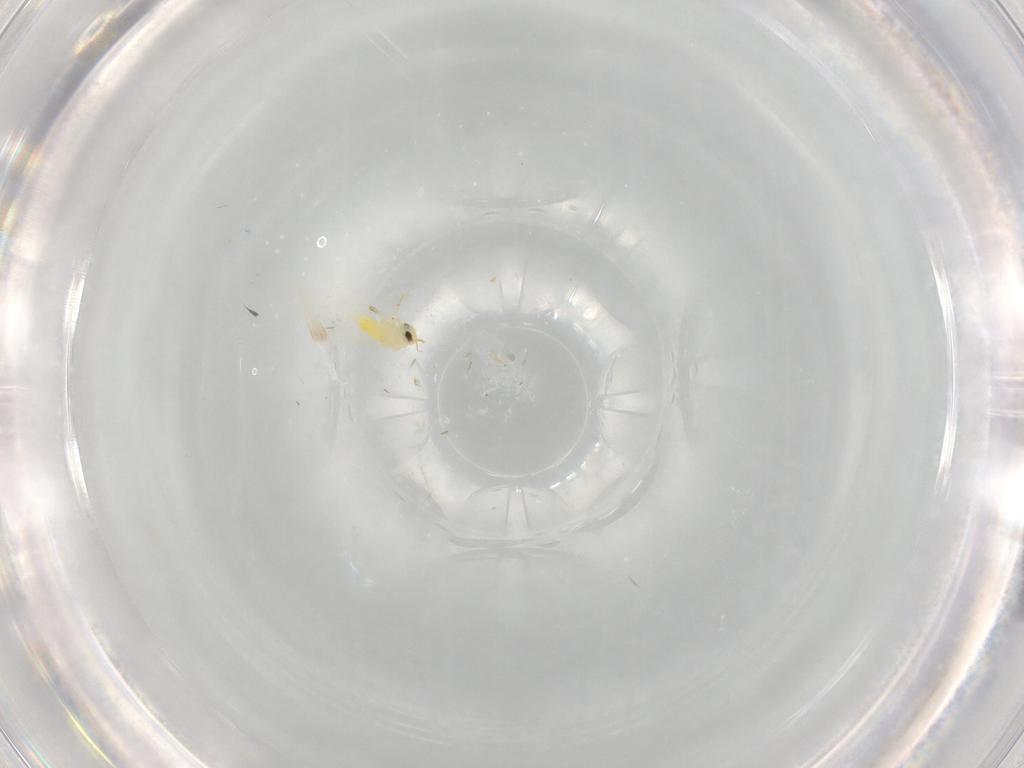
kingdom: Animalia
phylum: Arthropoda
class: Insecta
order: Hemiptera
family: Aleyrodidae
